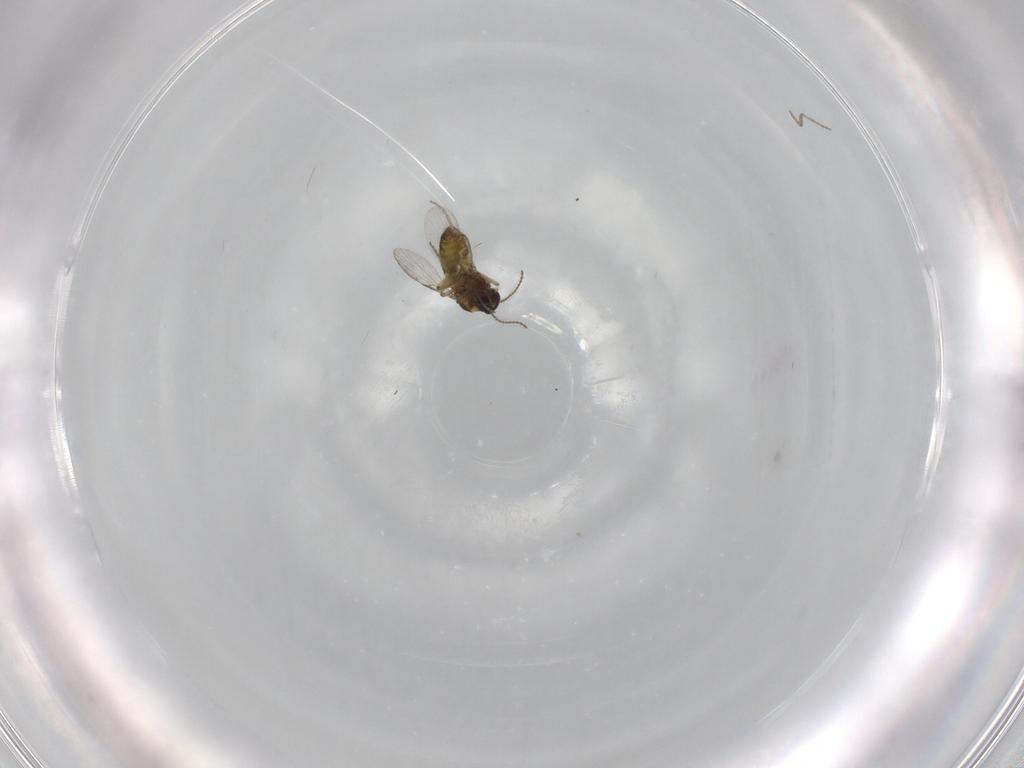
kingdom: Animalia
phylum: Arthropoda
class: Insecta
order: Diptera
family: Ceratopogonidae
